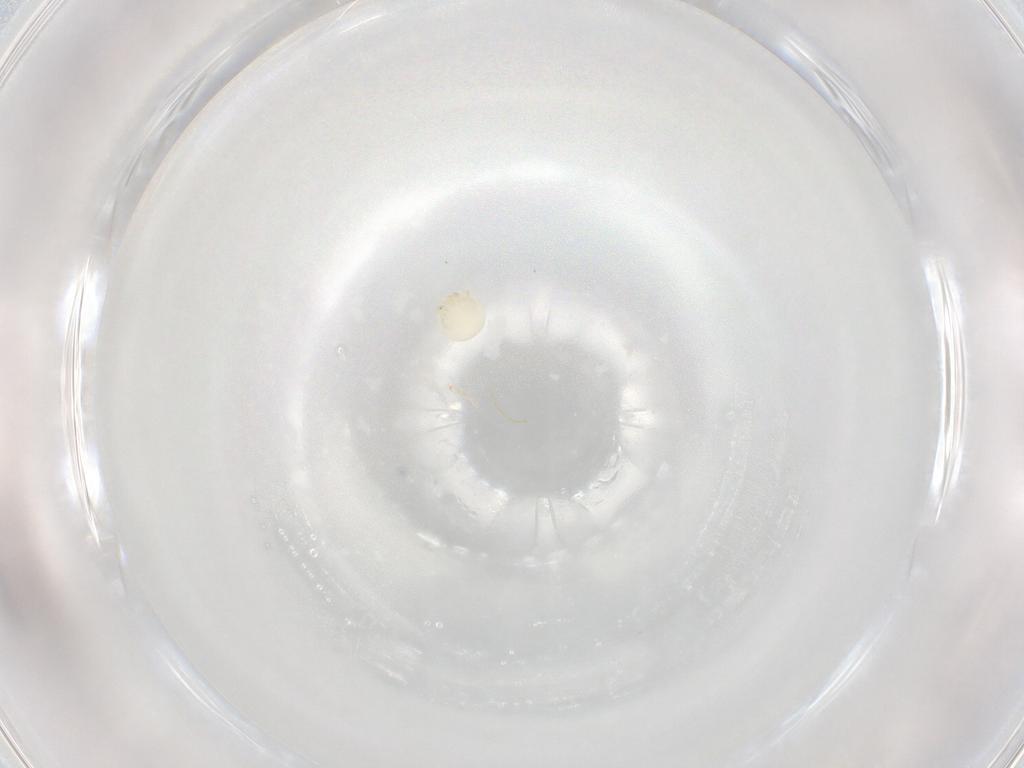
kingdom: Animalia
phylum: Arthropoda
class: Arachnida
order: Trombidiformes
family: Arrenuridae
